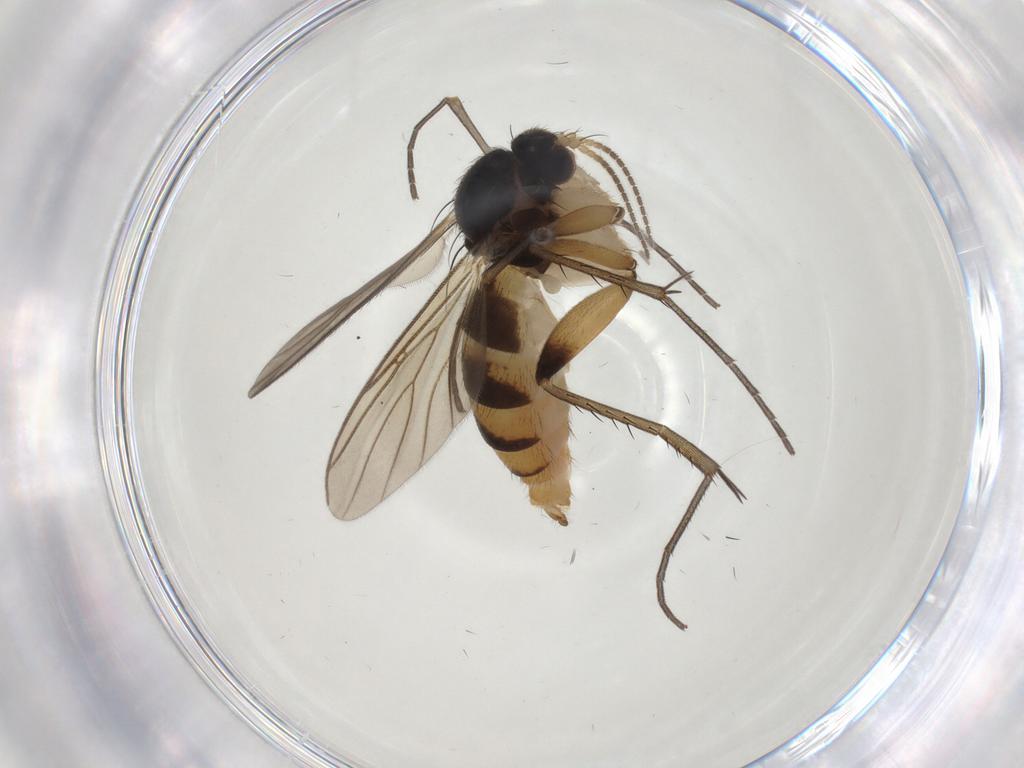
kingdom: Animalia
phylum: Arthropoda
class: Insecta
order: Diptera
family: Mycetophilidae
